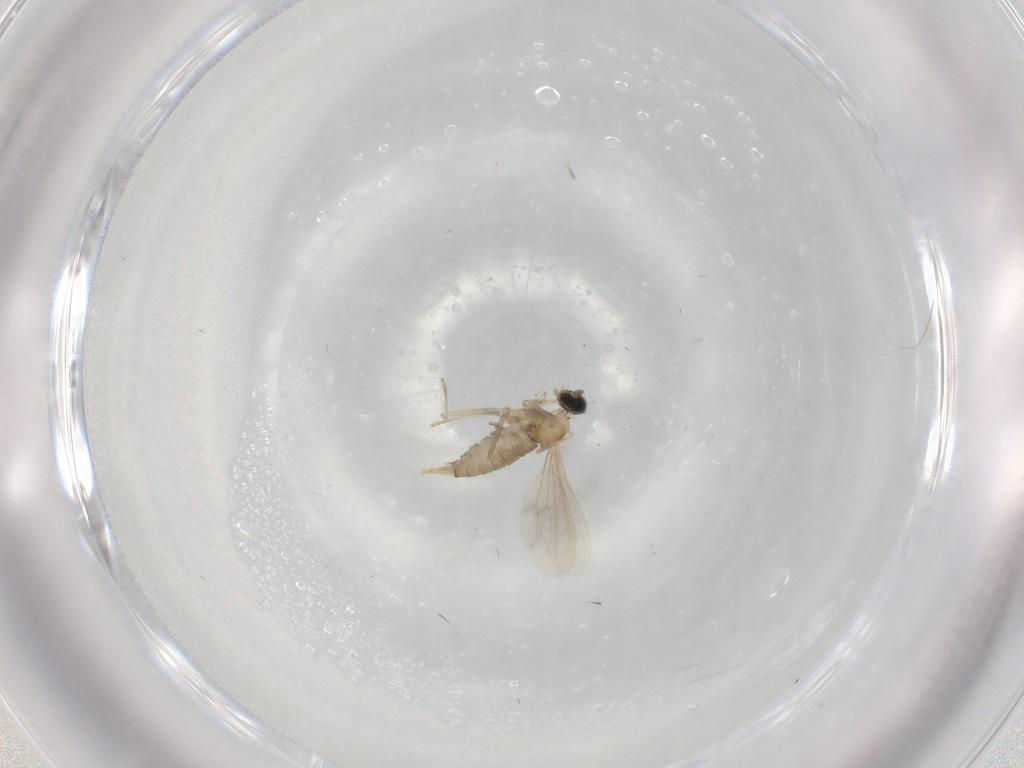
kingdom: Animalia
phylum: Arthropoda
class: Insecta
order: Diptera
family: Cecidomyiidae
